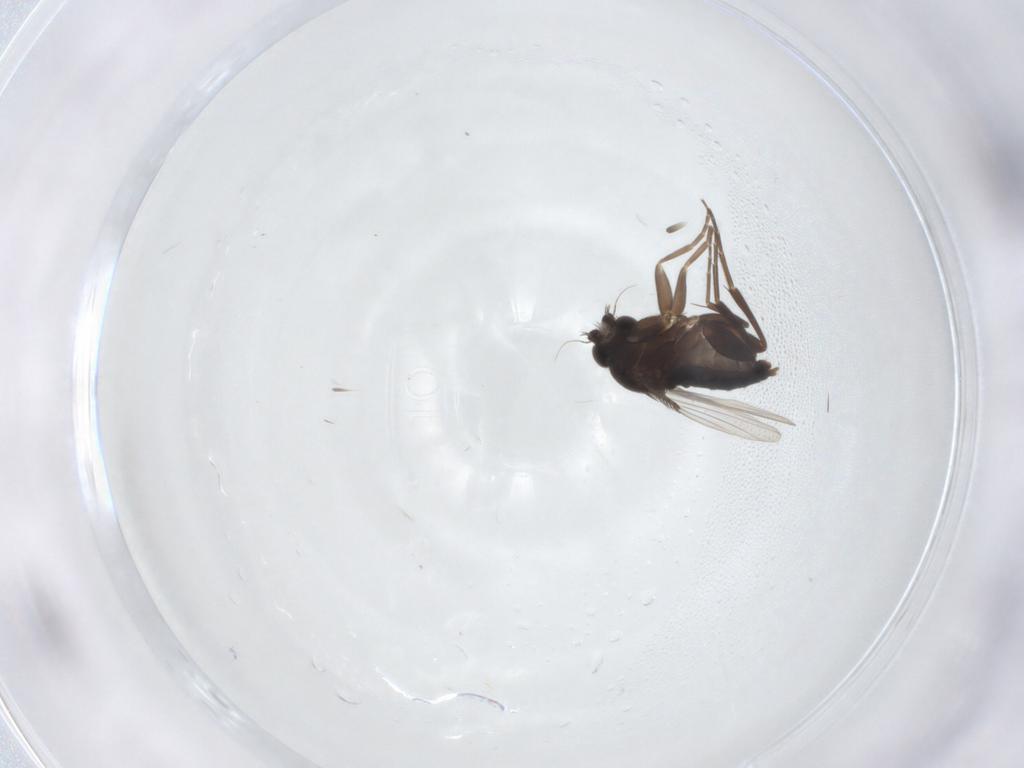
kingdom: Animalia
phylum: Arthropoda
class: Insecta
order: Diptera
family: Phoridae
